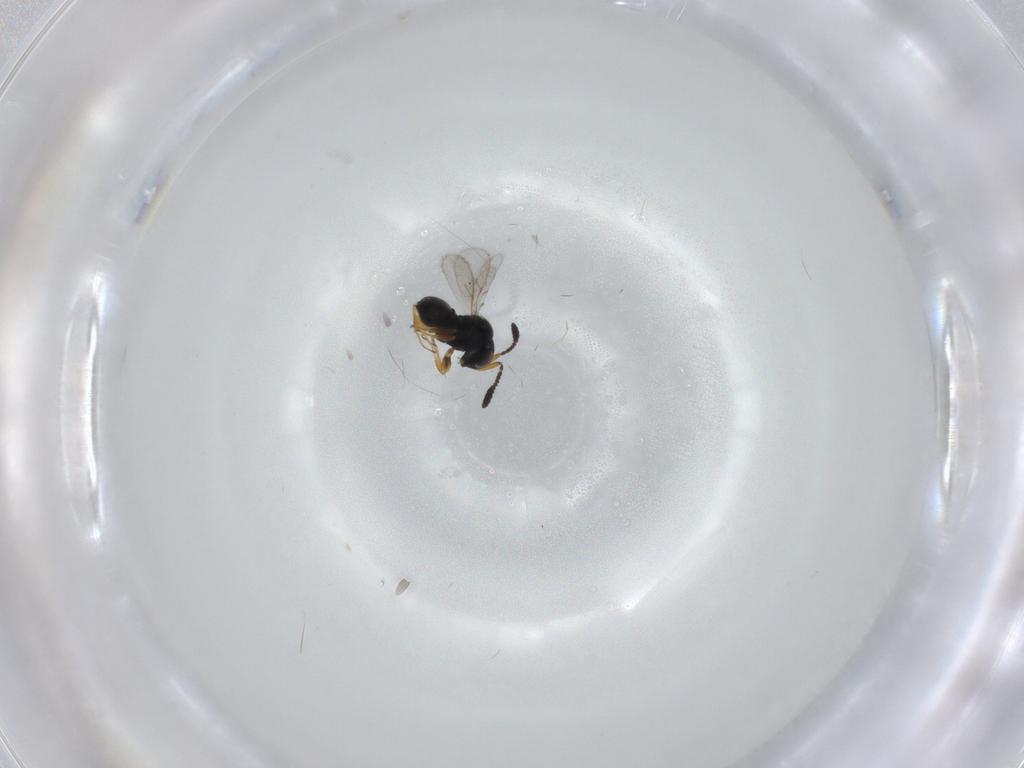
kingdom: Animalia
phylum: Arthropoda
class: Insecta
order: Hymenoptera
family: Scelionidae
